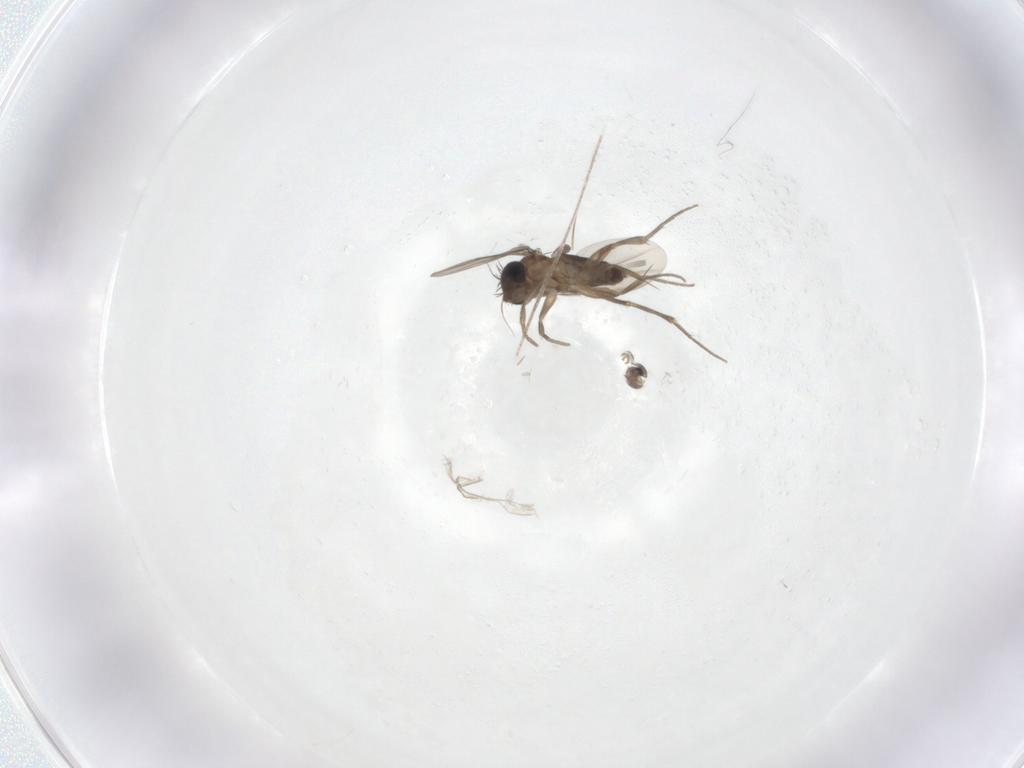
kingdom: Animalia
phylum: Arthropoda
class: Insecta
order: Diptera
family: Phoridae
